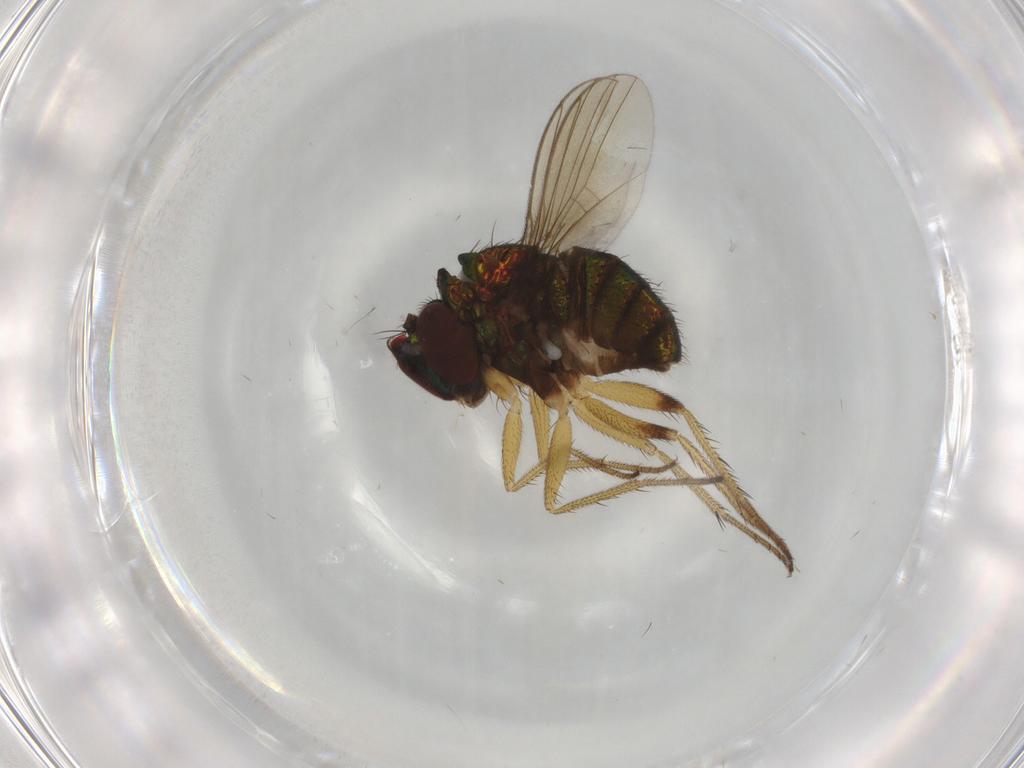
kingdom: Animalia
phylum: Arthropoda
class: Insecta
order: Diptera
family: Dolichopodidae
